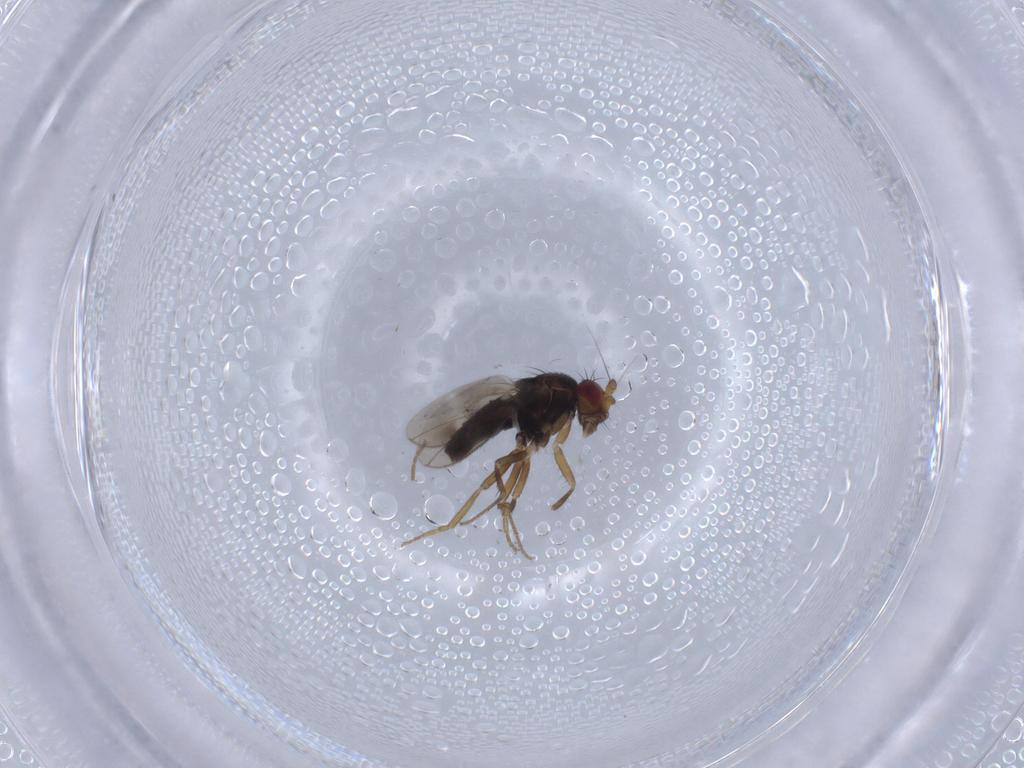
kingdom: Animalia
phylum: Arthropoda
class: Insecta
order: Diptera
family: Sphaeroceridae
